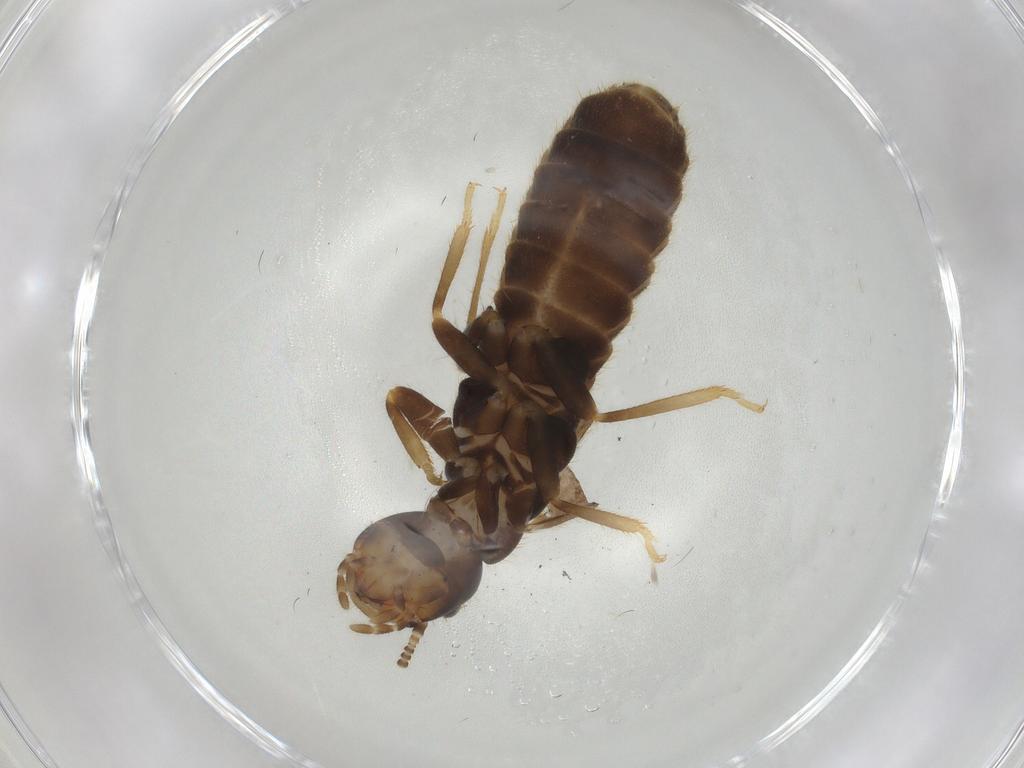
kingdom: Animalia
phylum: Arthropoda
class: Insecta
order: Blattodea
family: Rhinotermitidae
